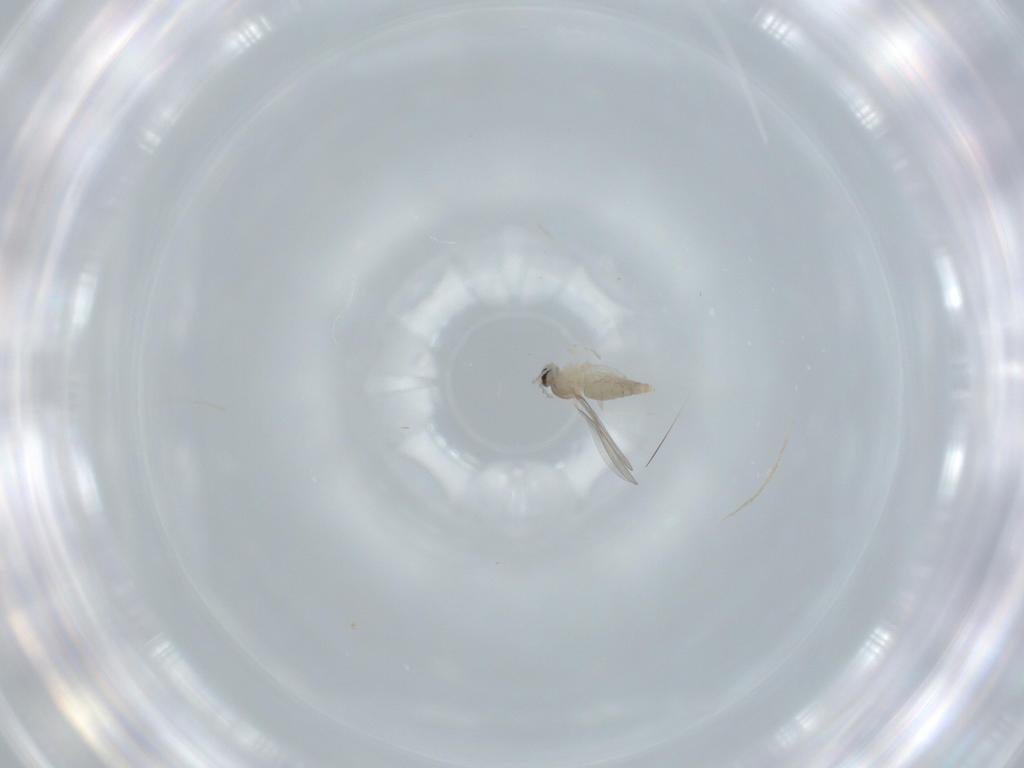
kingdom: Animalia
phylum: Arthropoda
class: Insecta
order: Diptera
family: Cecidomyiidae
